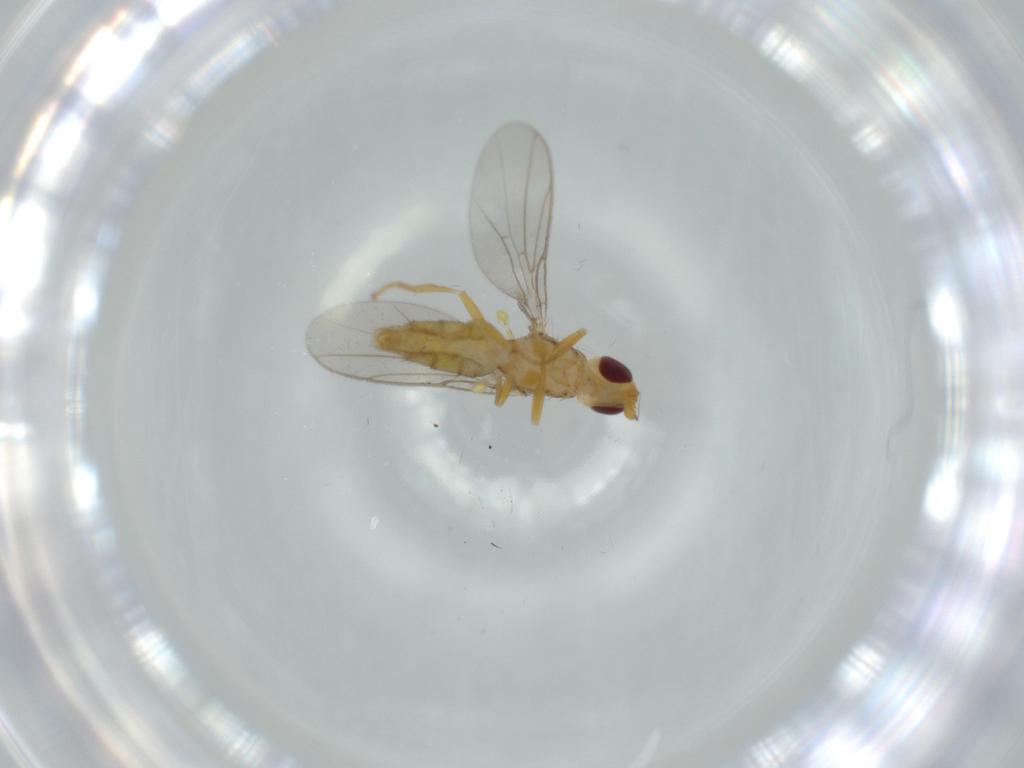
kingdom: Animalia
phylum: Arthropoda
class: Insecta
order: Diptera
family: Chloropidae
